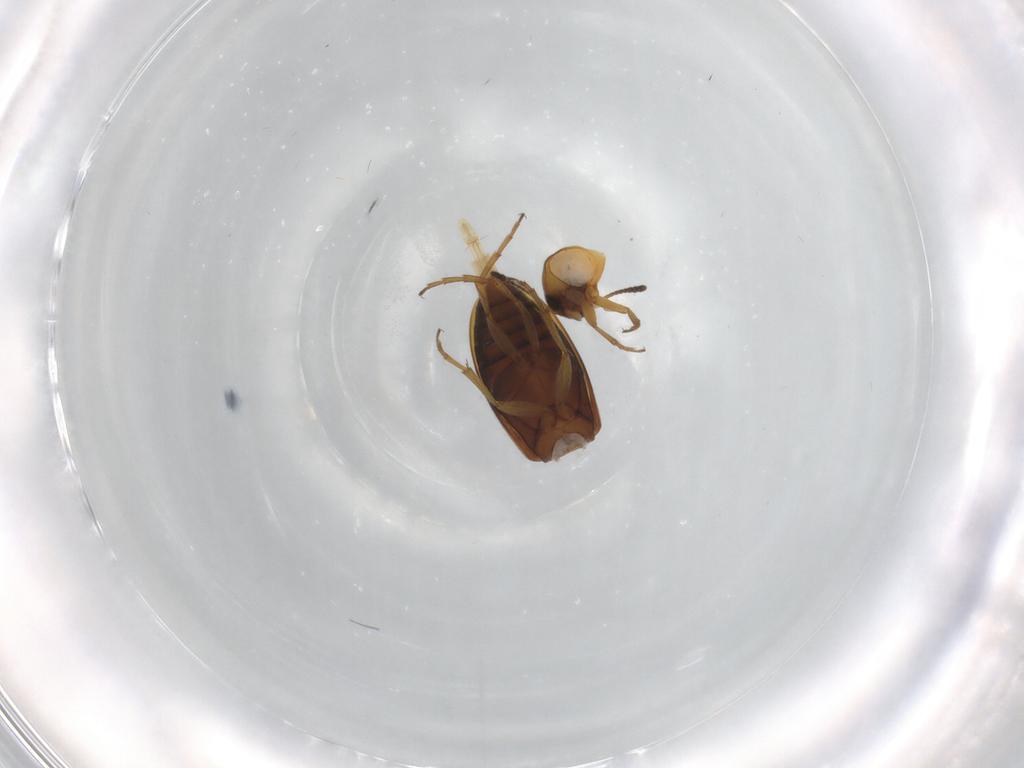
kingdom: Animalia
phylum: Arthropoda
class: Insecta
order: Coleoptera
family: Scraptiidae
